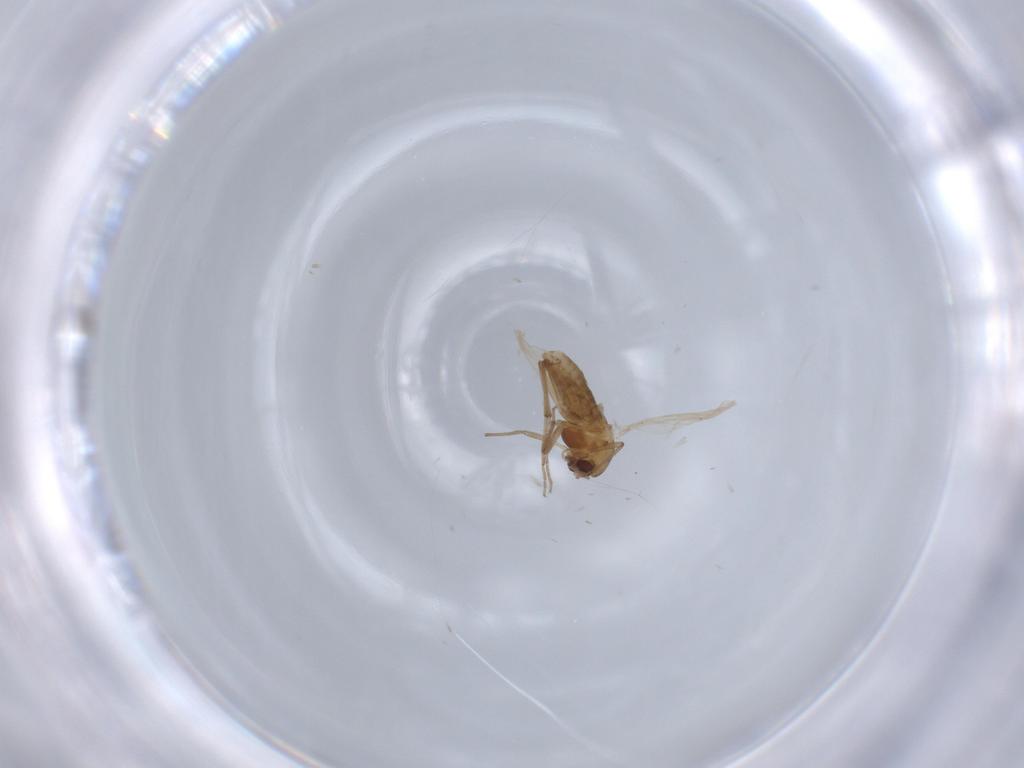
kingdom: Animalia
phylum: Arthropoda
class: Insecta
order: Diptera
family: Chironomidae
